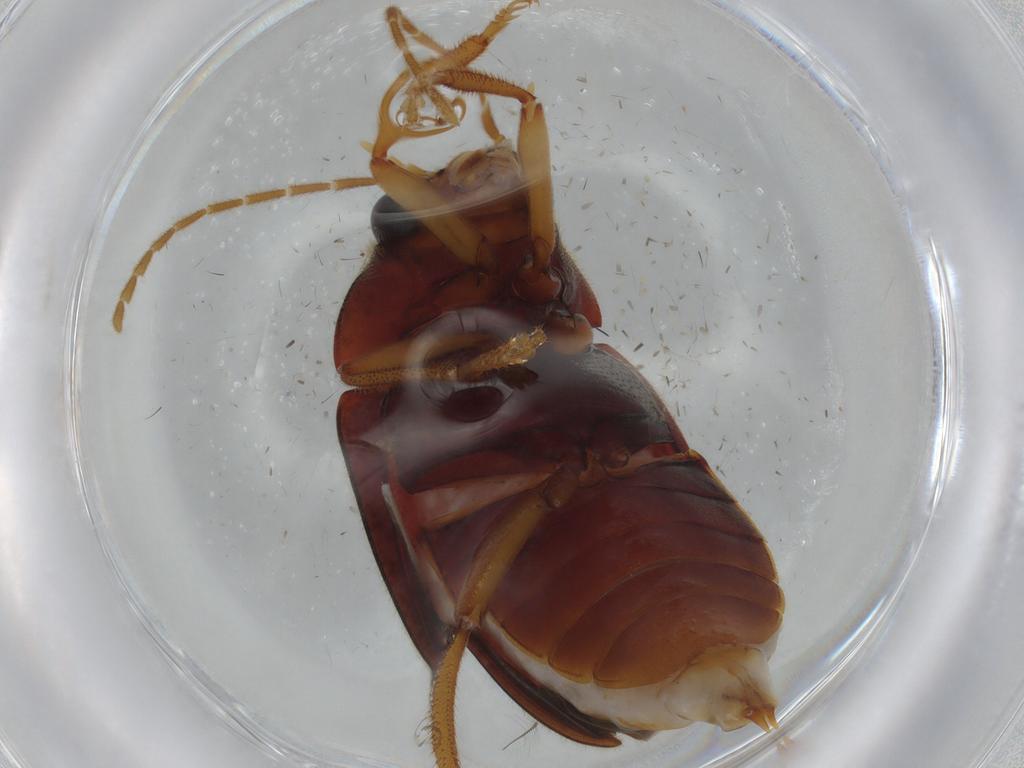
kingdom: Animalia
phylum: Arthropoda
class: Insecta
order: Coleoptera
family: Ptilodactylidae
